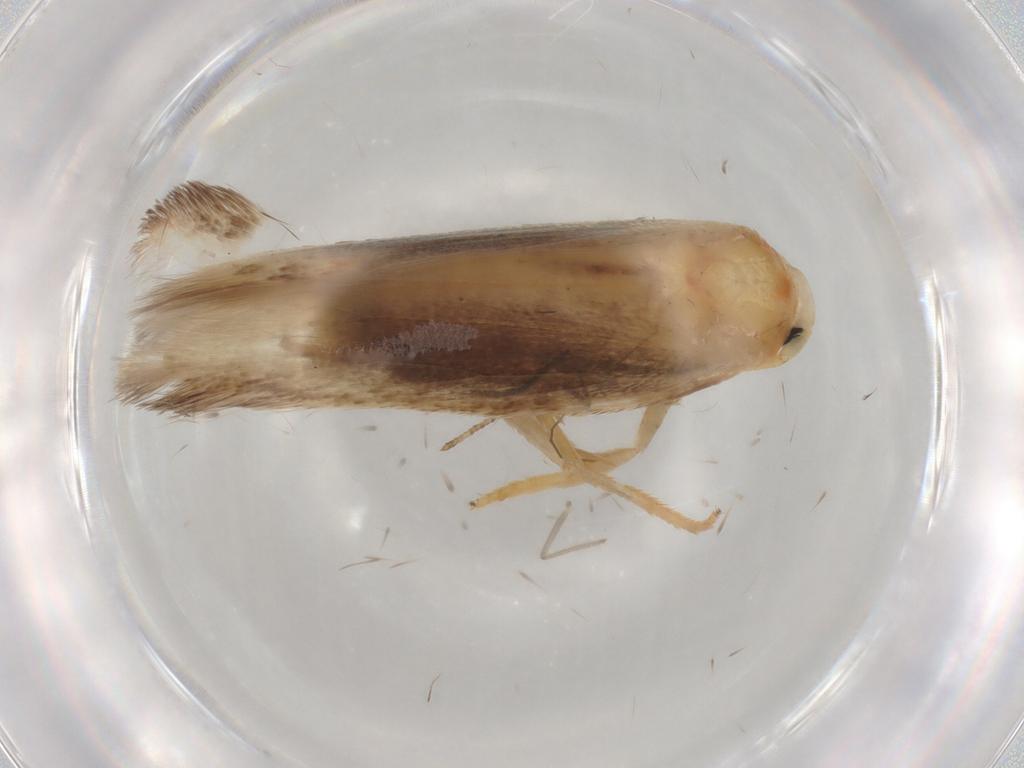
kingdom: Animalia
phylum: Arthropoda
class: Insecta
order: Lepidoptera
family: Geometridae
